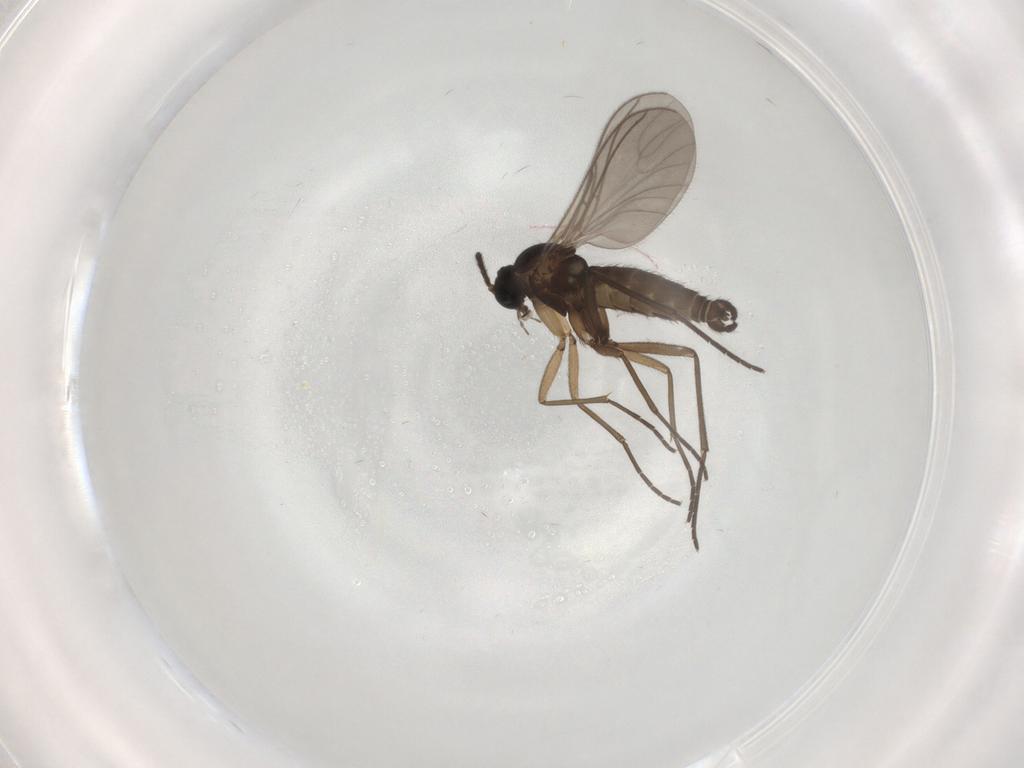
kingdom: Animalia
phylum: Arthropoda
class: Insecta
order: Diptera
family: Sciaridae
